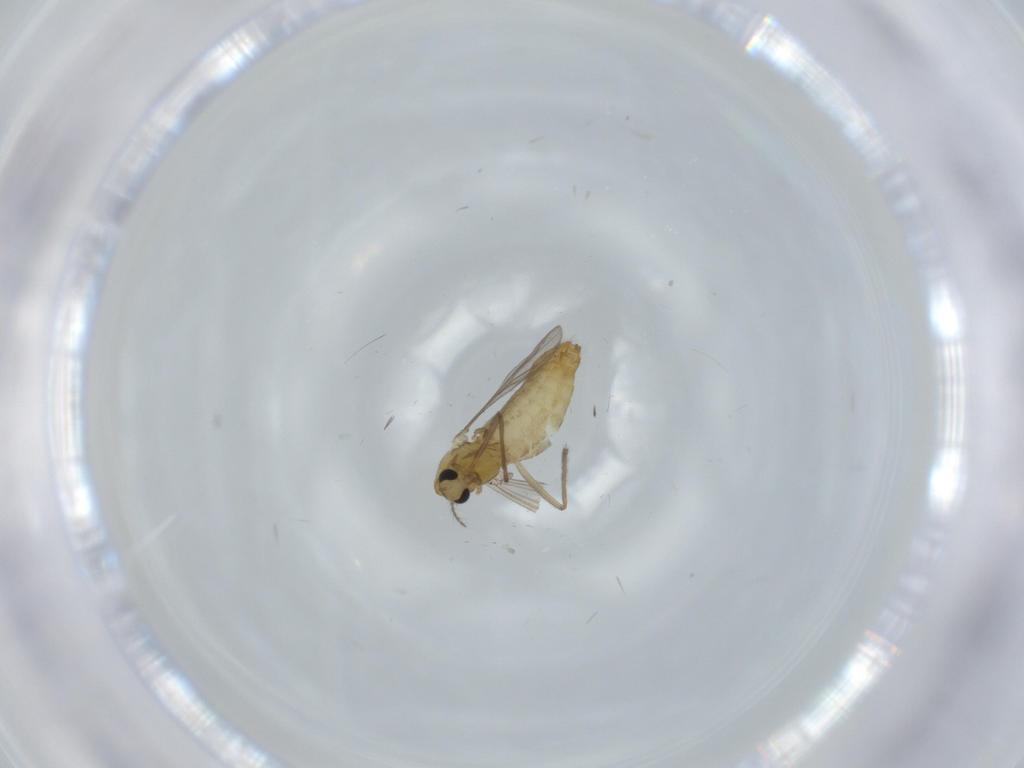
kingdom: Animalia
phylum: Arthropoda
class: Insecta
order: Diptera
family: Chironomidae
